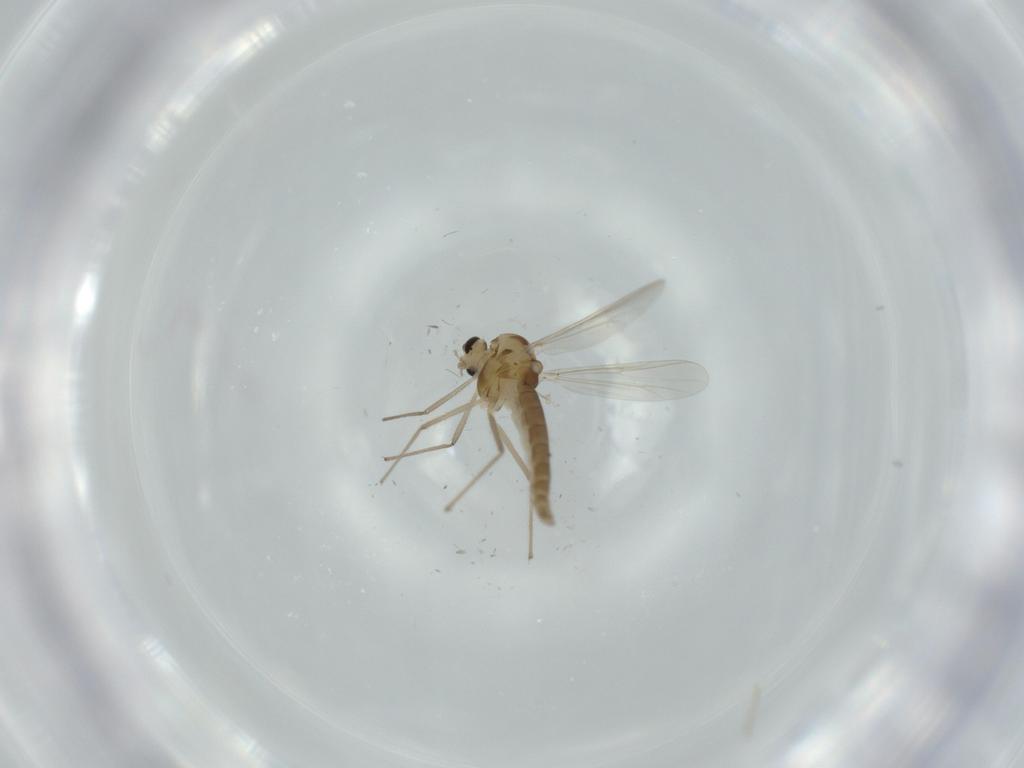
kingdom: Animalia
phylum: Arthropoda
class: Insecta
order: Diptera
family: Chironomidae
